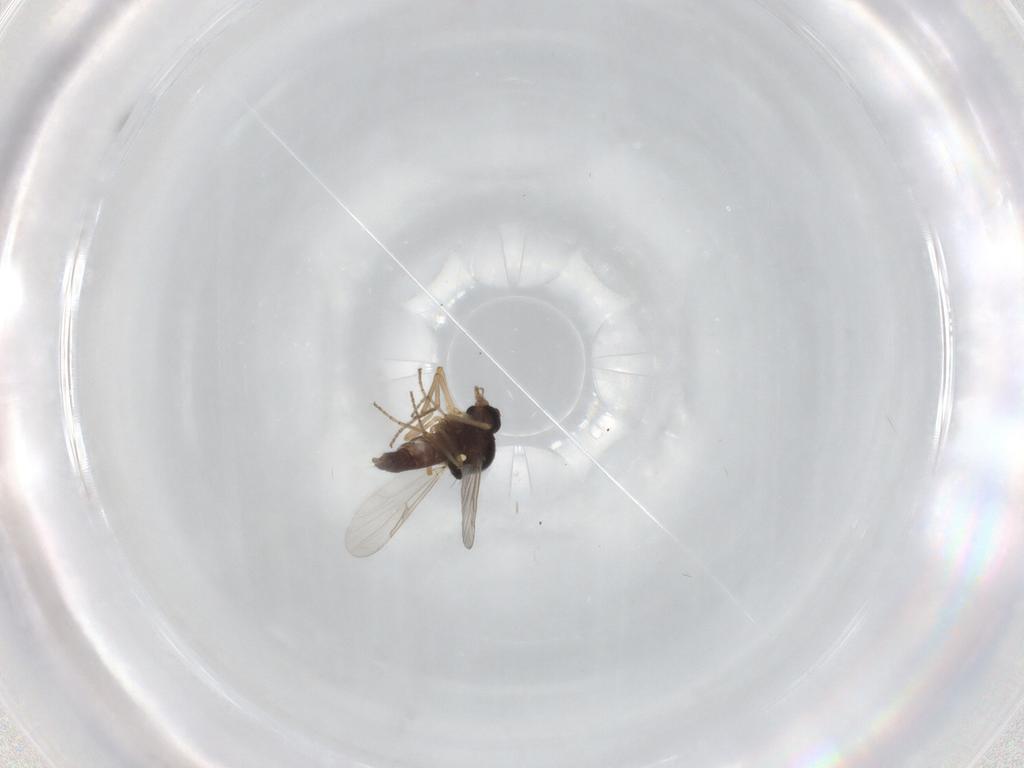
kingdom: Animalia
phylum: Arthropoda
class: Insecta
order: Diptera
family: Ceratopogonidae
